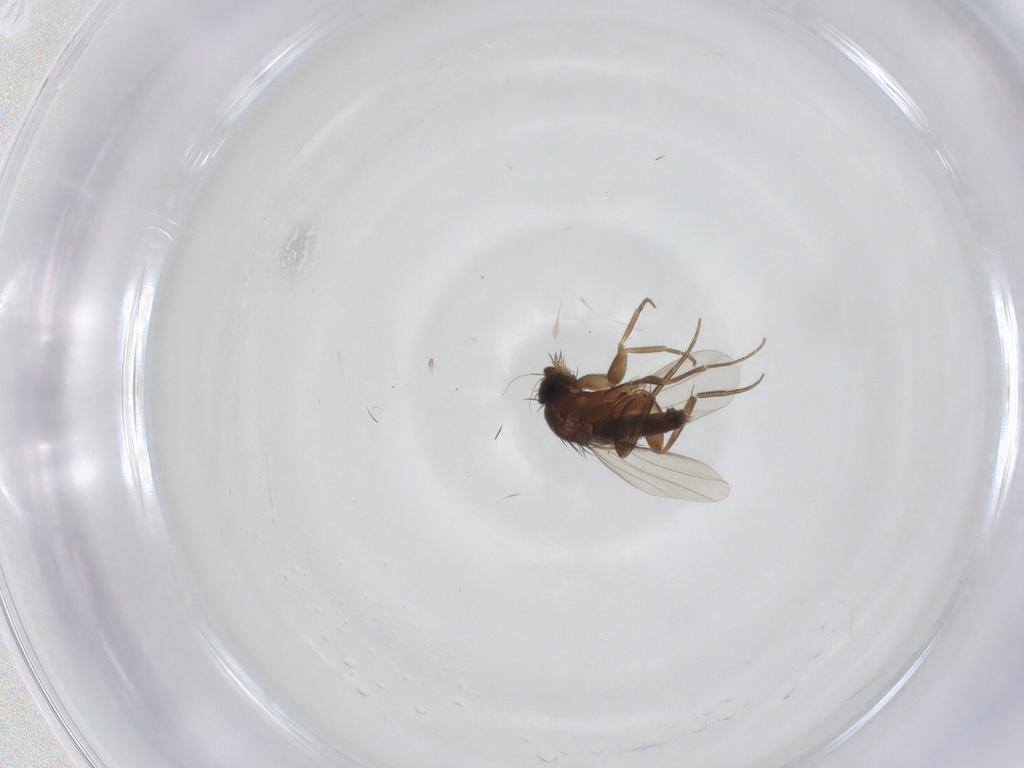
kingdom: Animalia
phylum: Arthropoda
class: Insecta
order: Diptera
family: Phoridae
